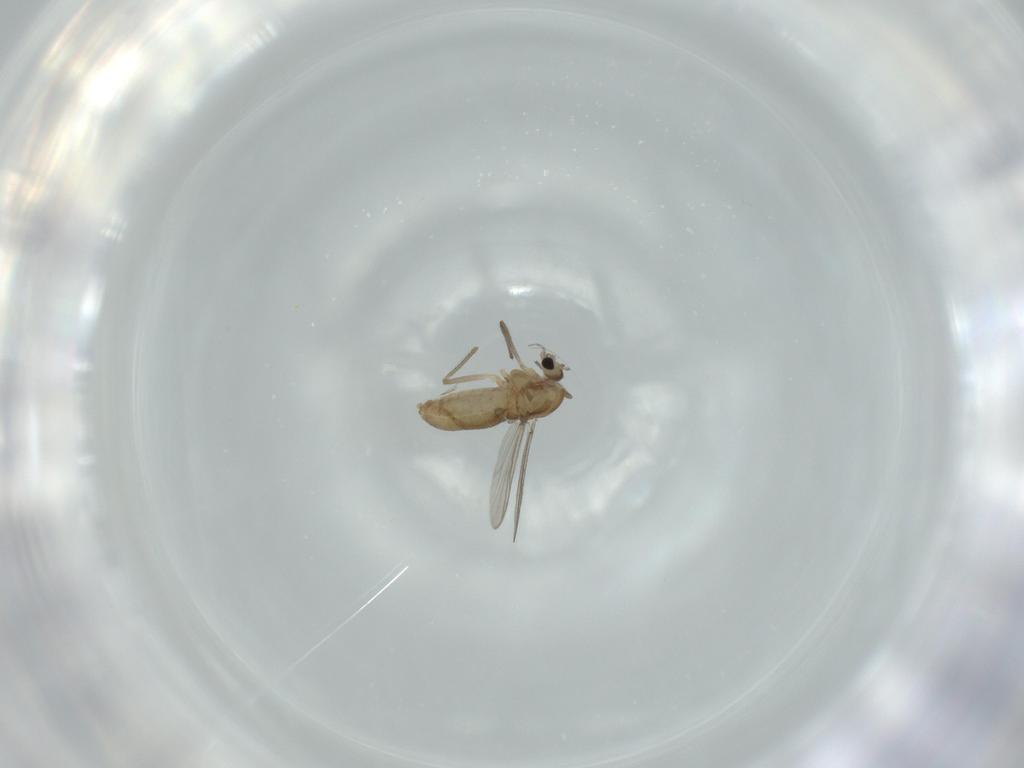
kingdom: Animalia
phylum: Arthropoda
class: Insecta
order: Diptera
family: Chironomidae
